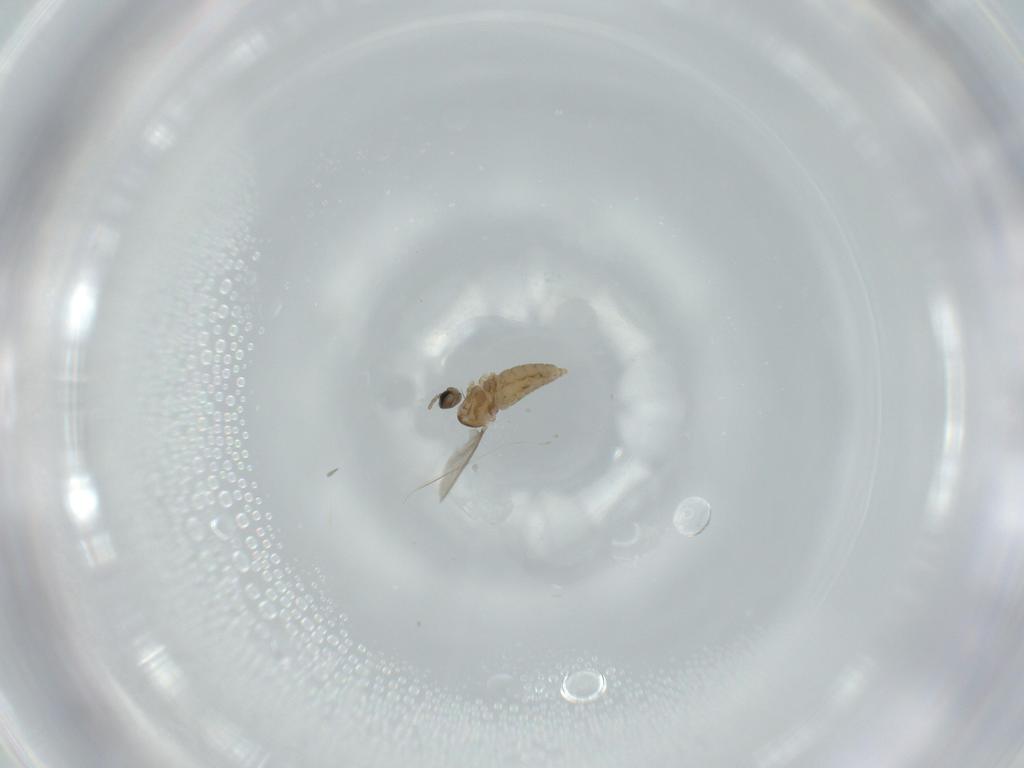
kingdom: Animalia
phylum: Arthropoda
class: Insecta
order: Diptera
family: Cecidomyiidae
